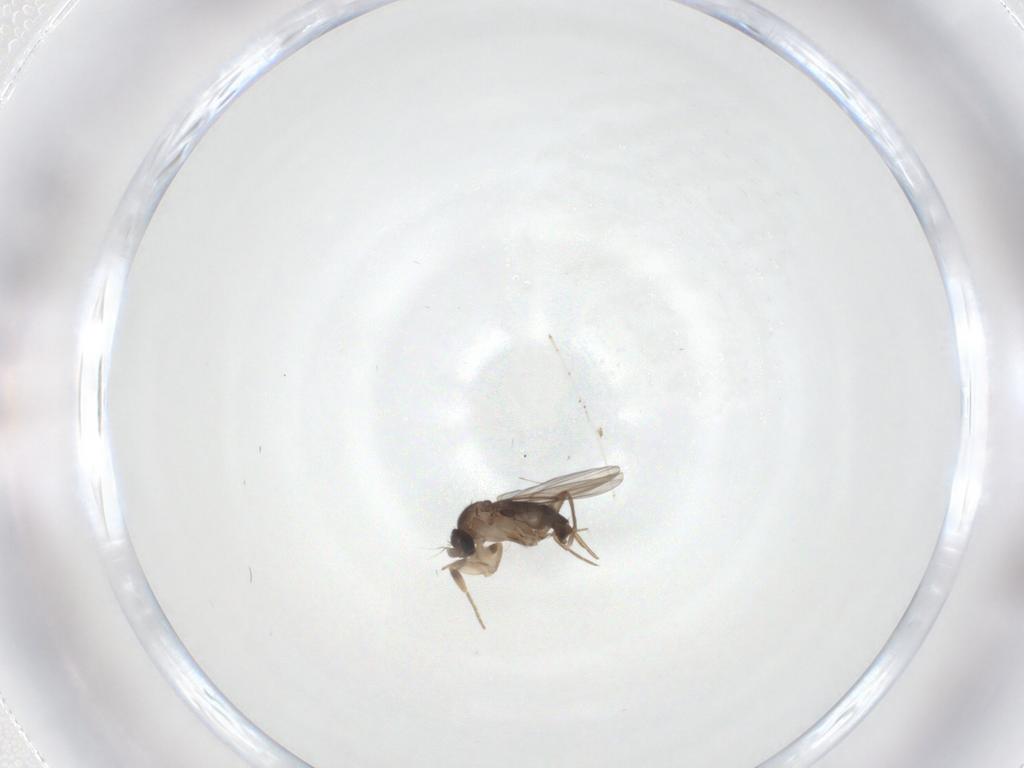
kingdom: Animalia
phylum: Arthropoda
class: Insecta
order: Diptera
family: Phoridae
